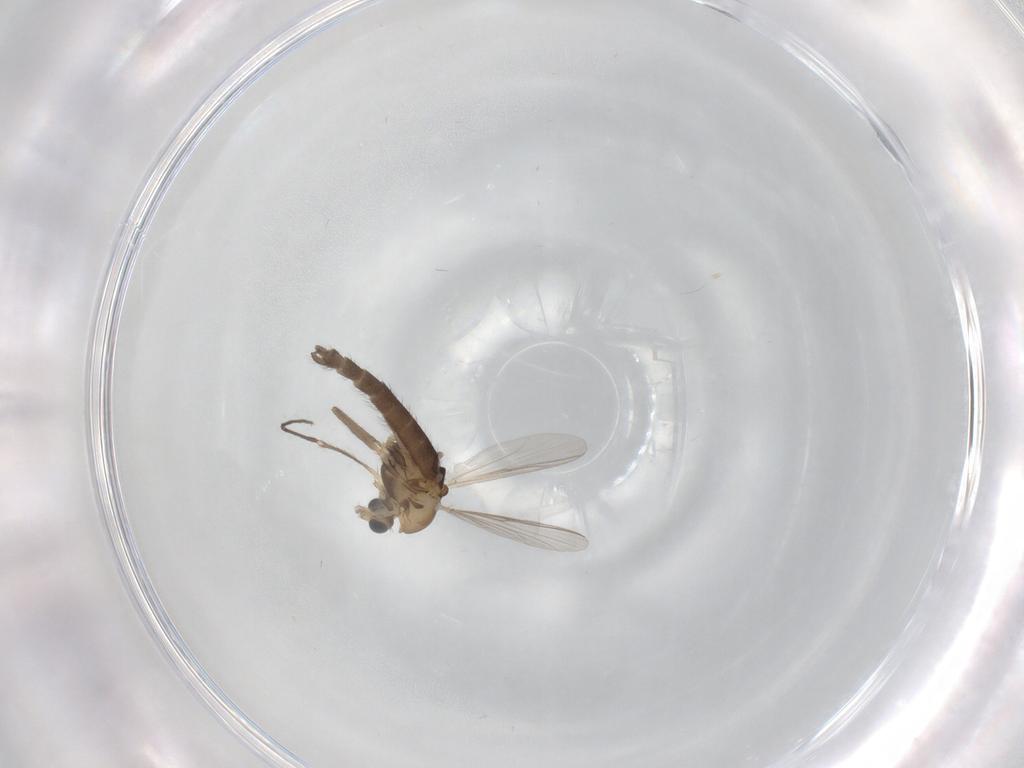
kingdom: Animalia
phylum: Arthropoda
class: Insecta
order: Diptera
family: Chironomidae
